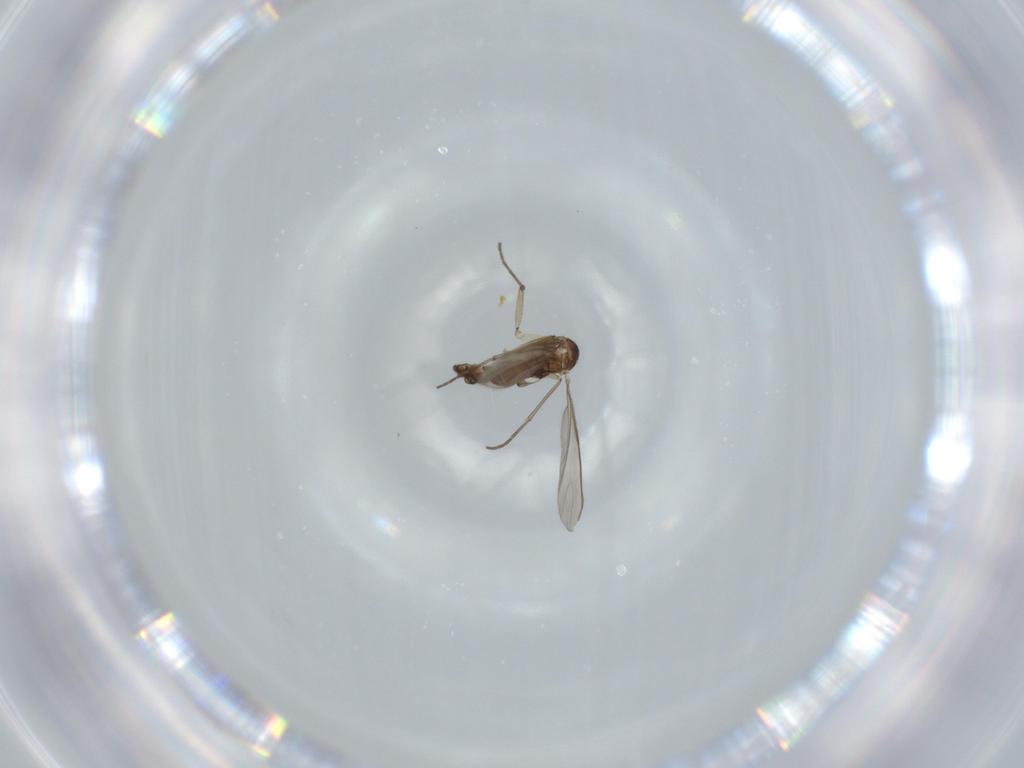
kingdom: Animalia
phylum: Arthropoda
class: Insecta
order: Diptera
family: Sciaridae
